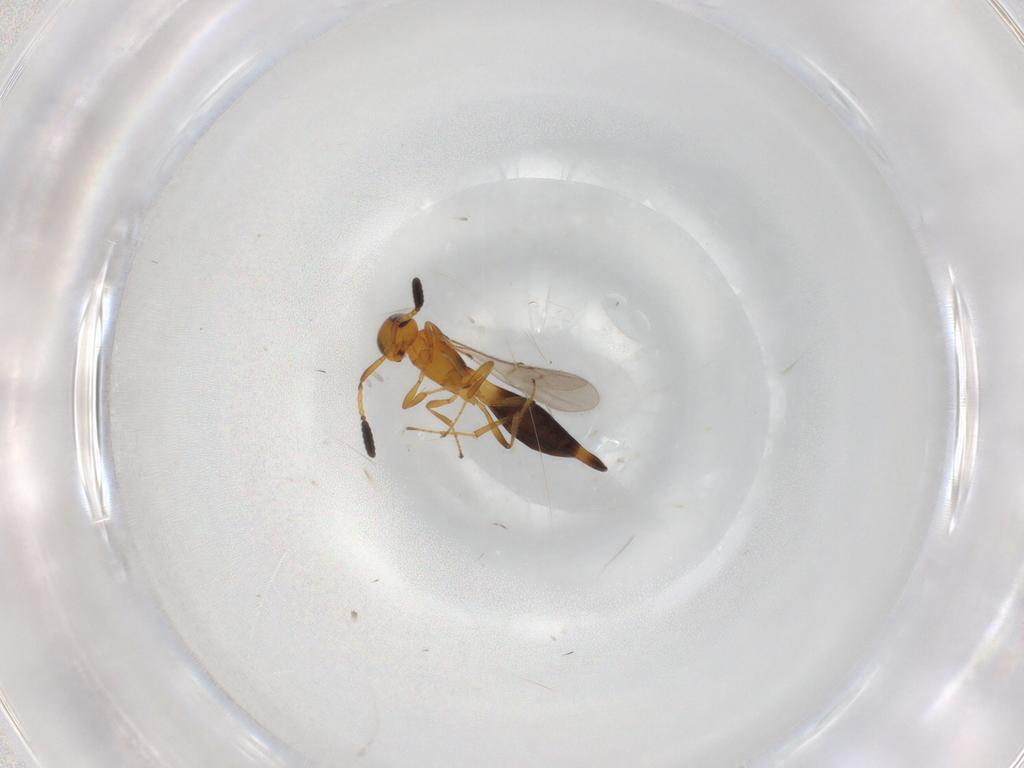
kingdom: Animalia
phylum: Arthropoda
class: Insecta
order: Hymenoptera
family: Scelionidae
